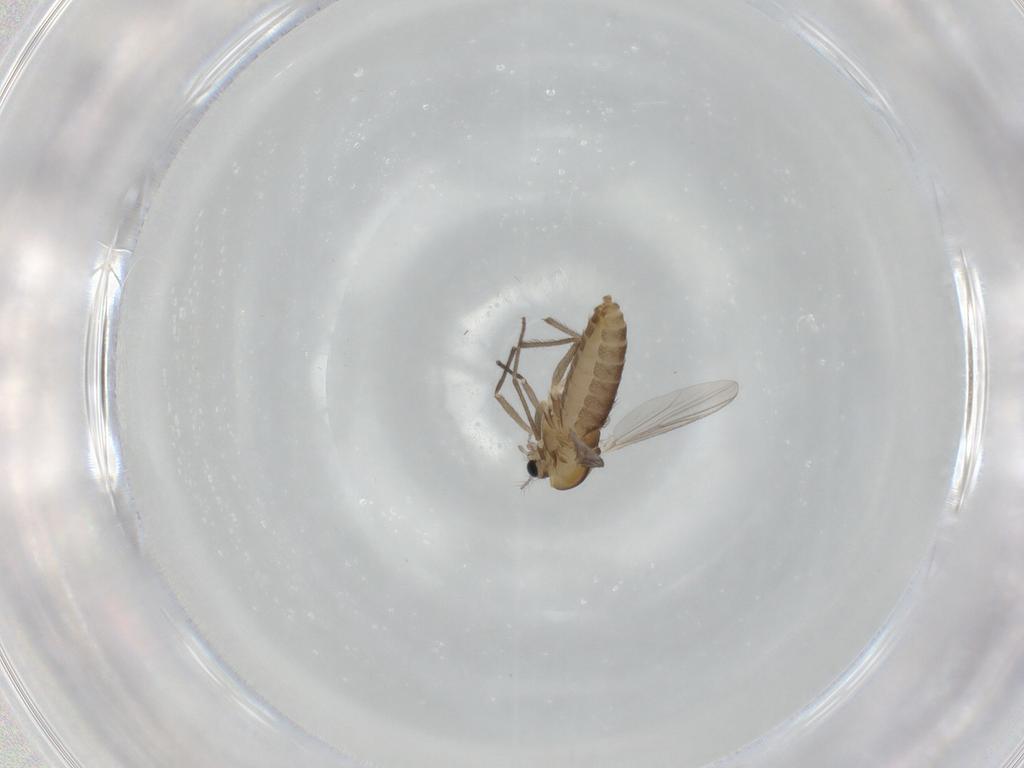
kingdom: Animalia
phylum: Arthropoda
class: Insecta
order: Diptera
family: Chironomidae
